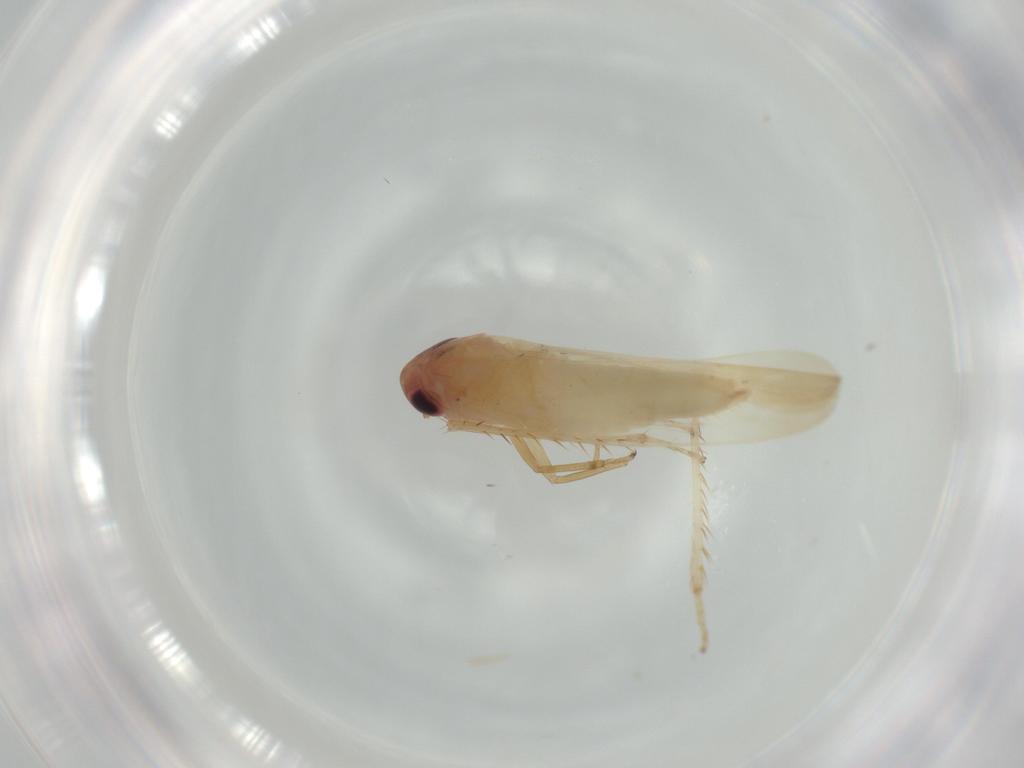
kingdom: Animalia
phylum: Arthropoda
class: Insecta
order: Hemiptera
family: Cicadellidae
